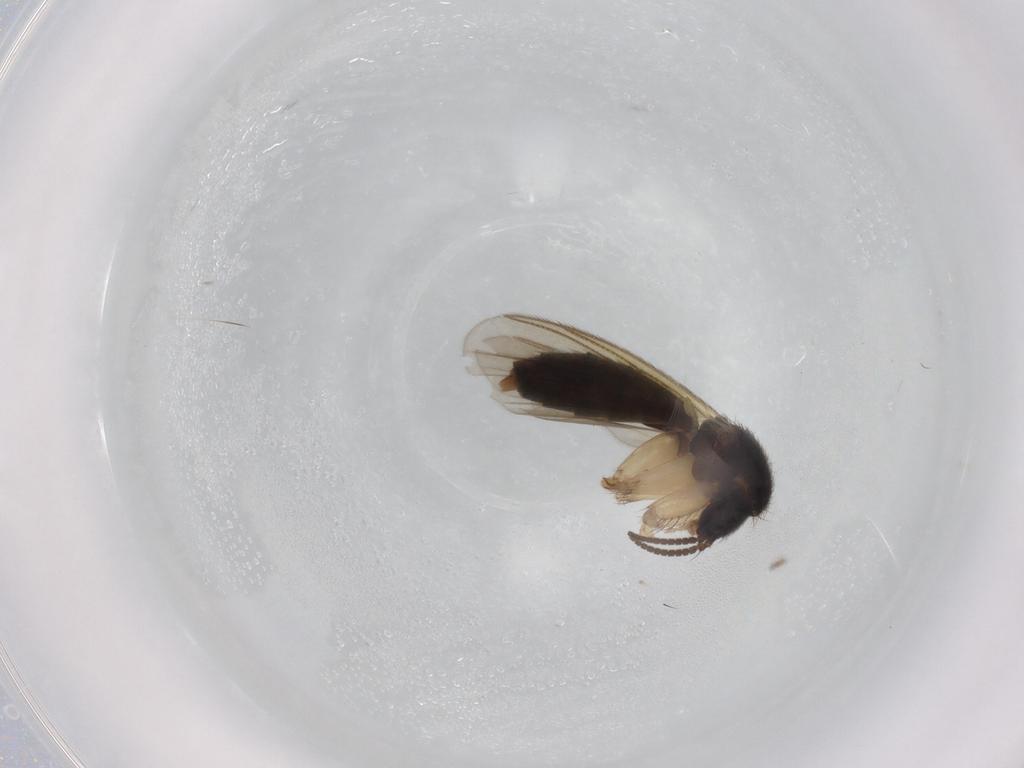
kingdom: Animalia
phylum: Arthropoda
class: Insecta
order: Diptera
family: Mycetophilidae
